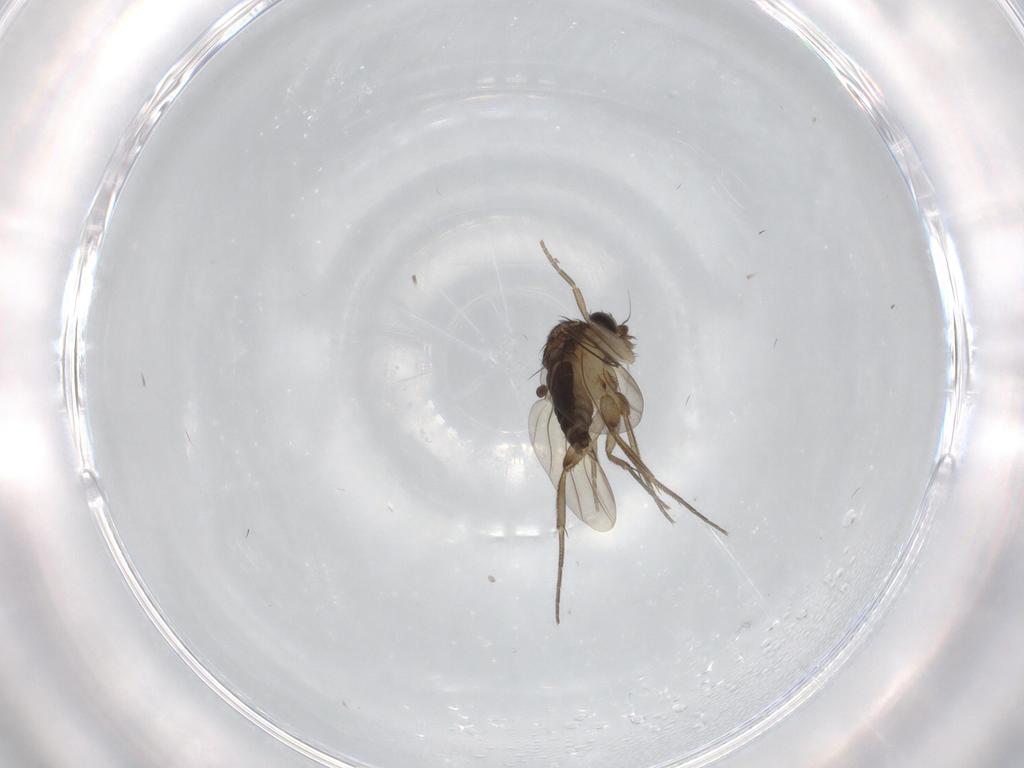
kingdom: Animalia
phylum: Arthropoda
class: Insecta
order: Diptera
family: Phoridae
